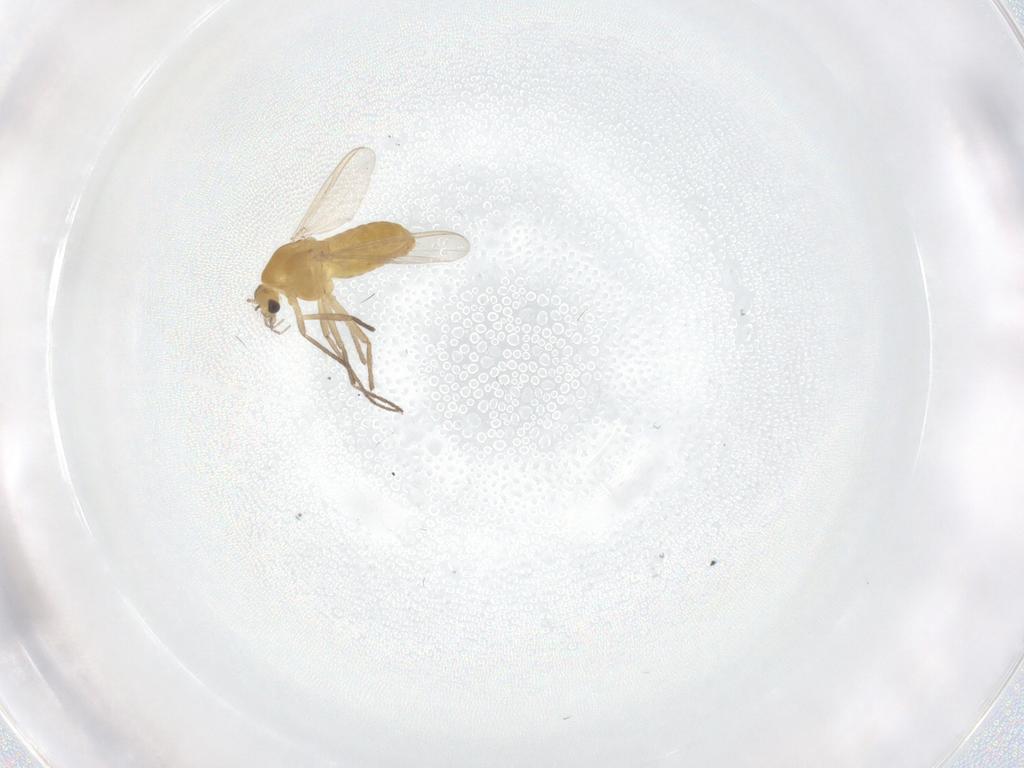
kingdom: Animalia
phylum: Arthropoda
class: Insecta
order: Diptera
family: Chironomidae
